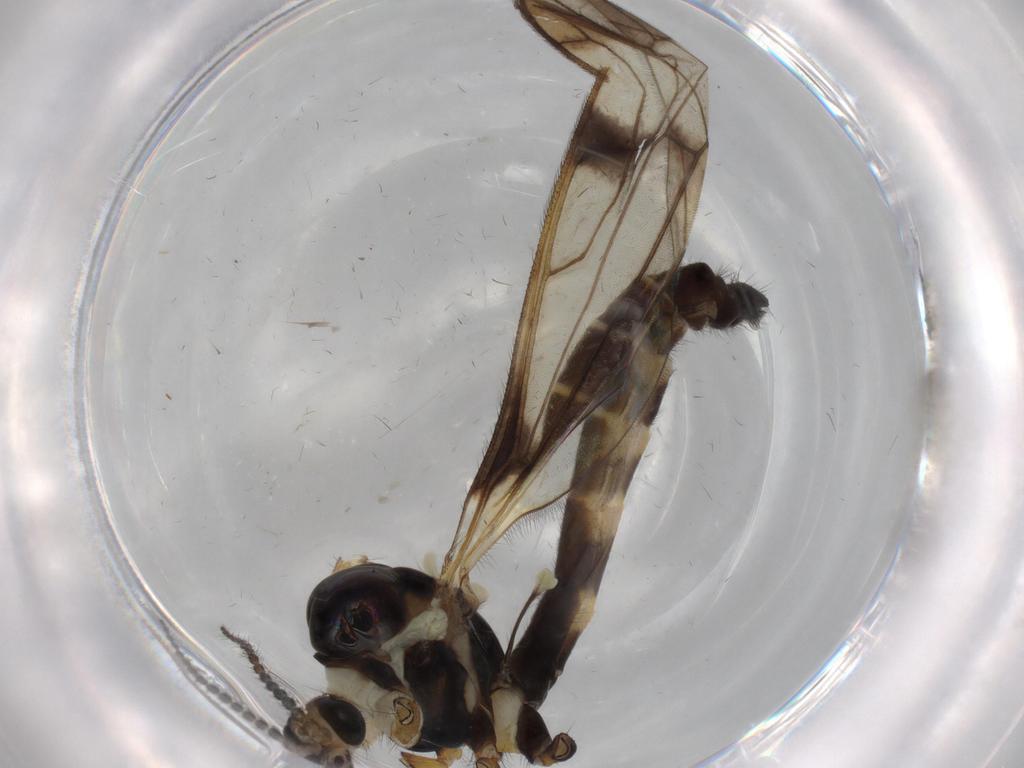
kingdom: Animalia
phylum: Arthropoda
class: Insecta
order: Diptera
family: Limoniidae
